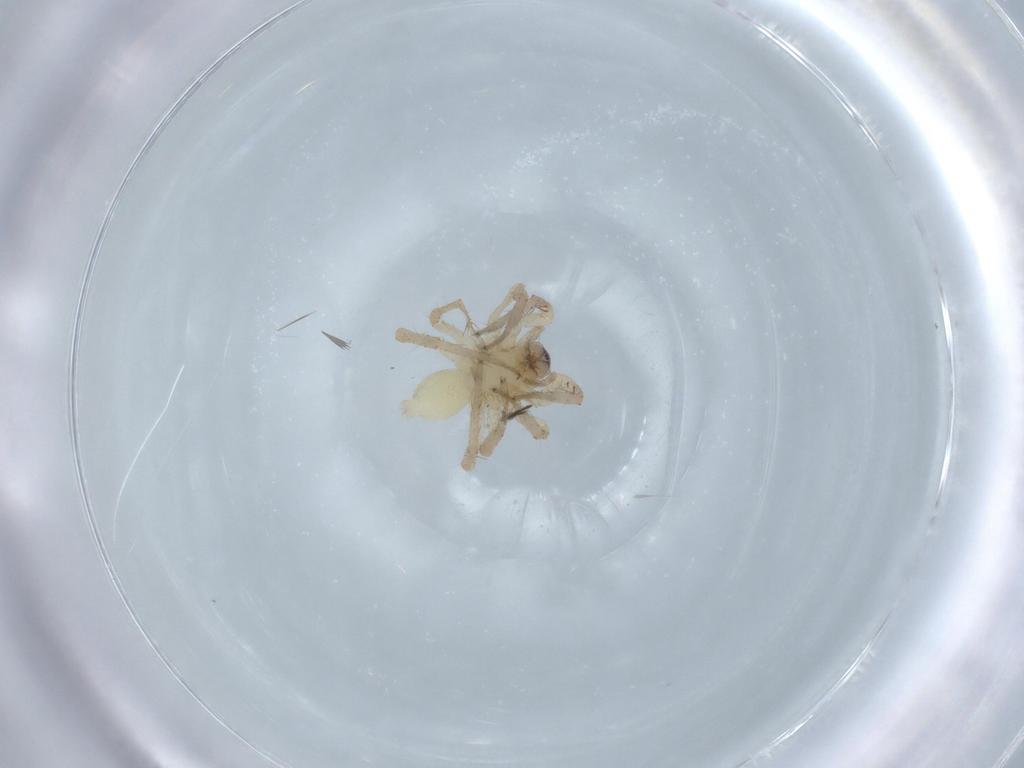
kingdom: Animalia
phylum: Arthropoda
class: Arachnida
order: Araneae
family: Anyphaenidae
